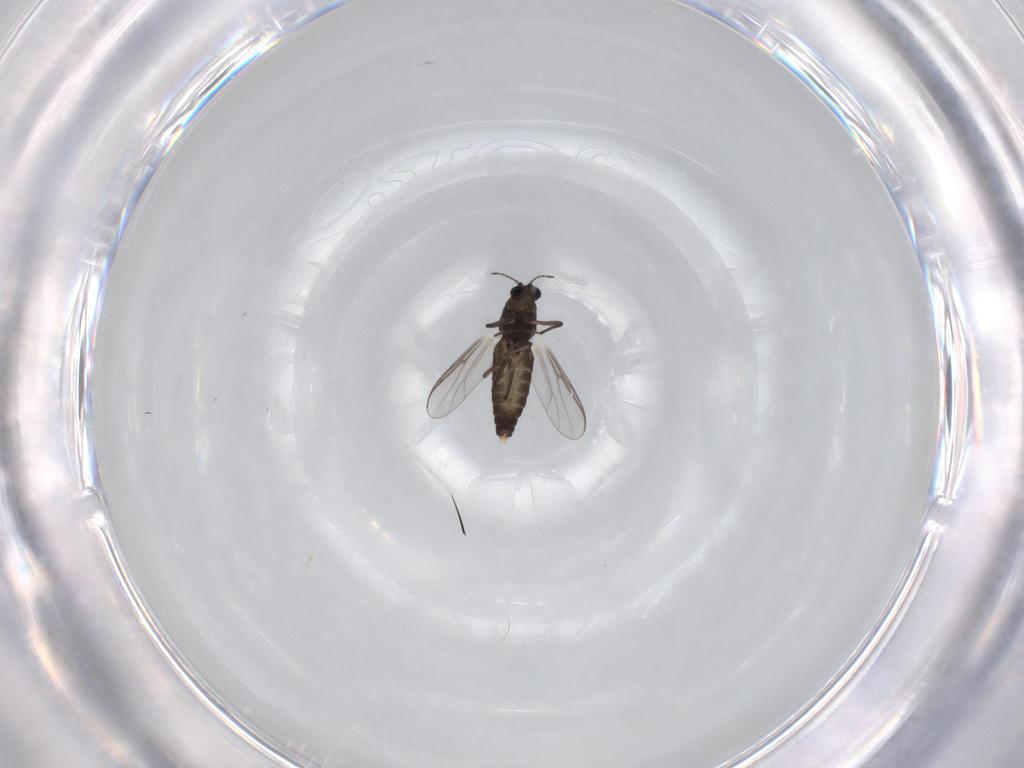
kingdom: Animalia
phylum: Arthropoda
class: Insecta
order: Diptera
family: Chironomidae
